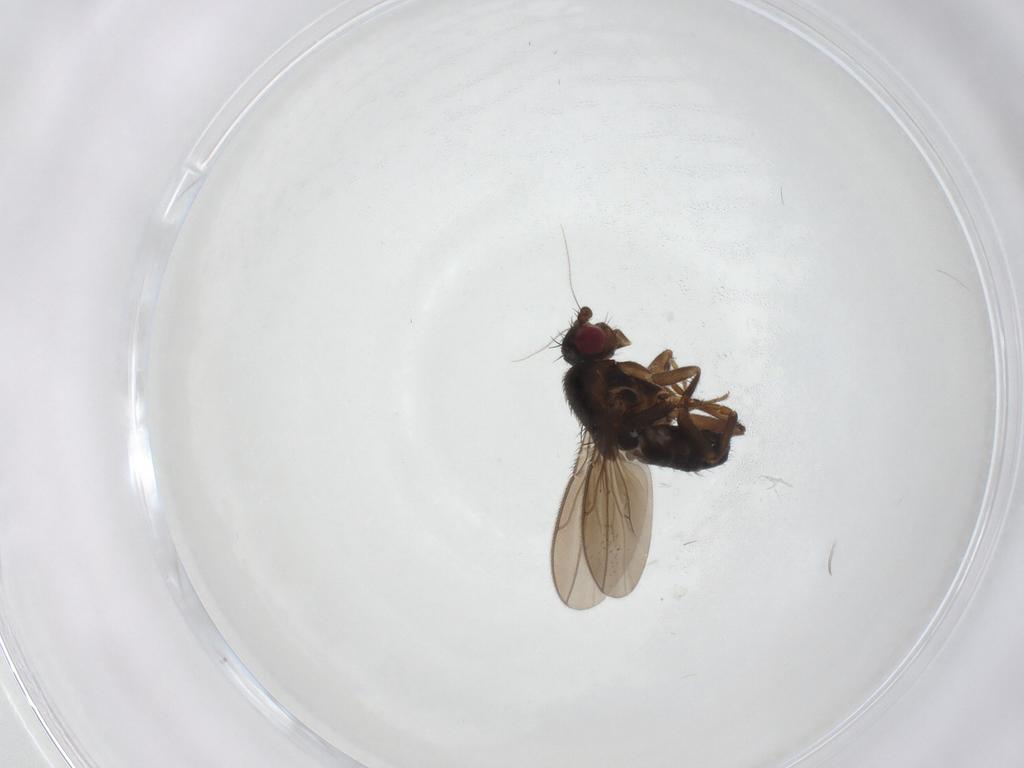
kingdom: Animalia
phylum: Arthropoda
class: Insecta
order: Diptera
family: Sphaeroceridae
